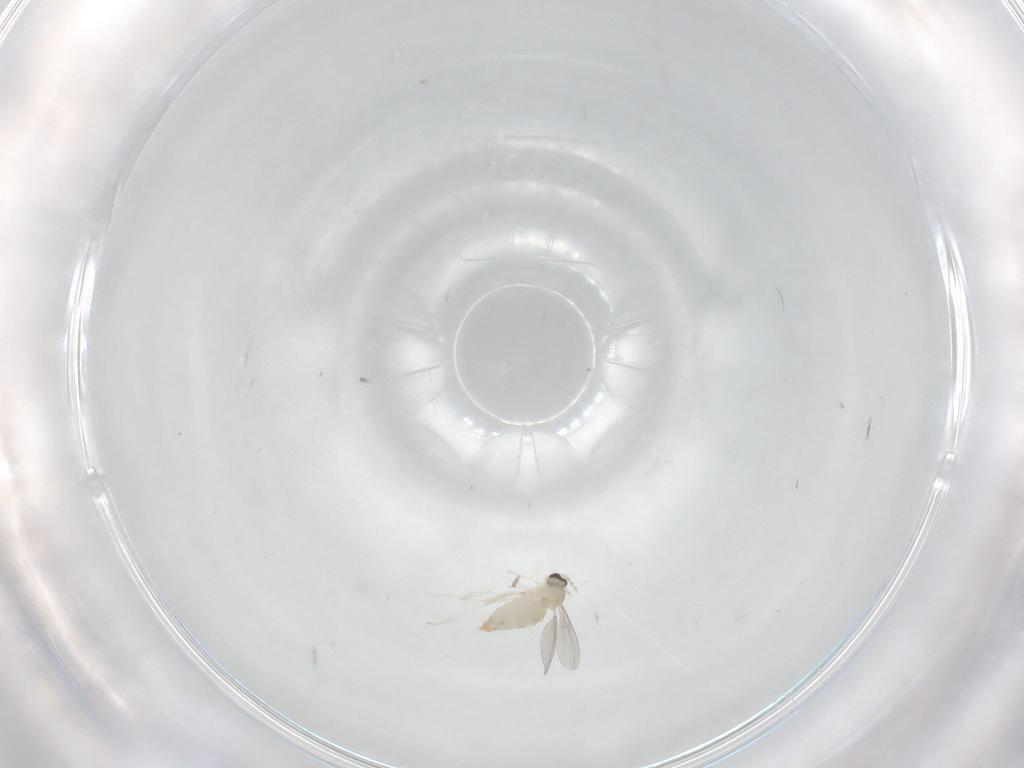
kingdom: Animalia
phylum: Arthropoda
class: Insecta
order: Diptera
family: Cecidomyiidae
